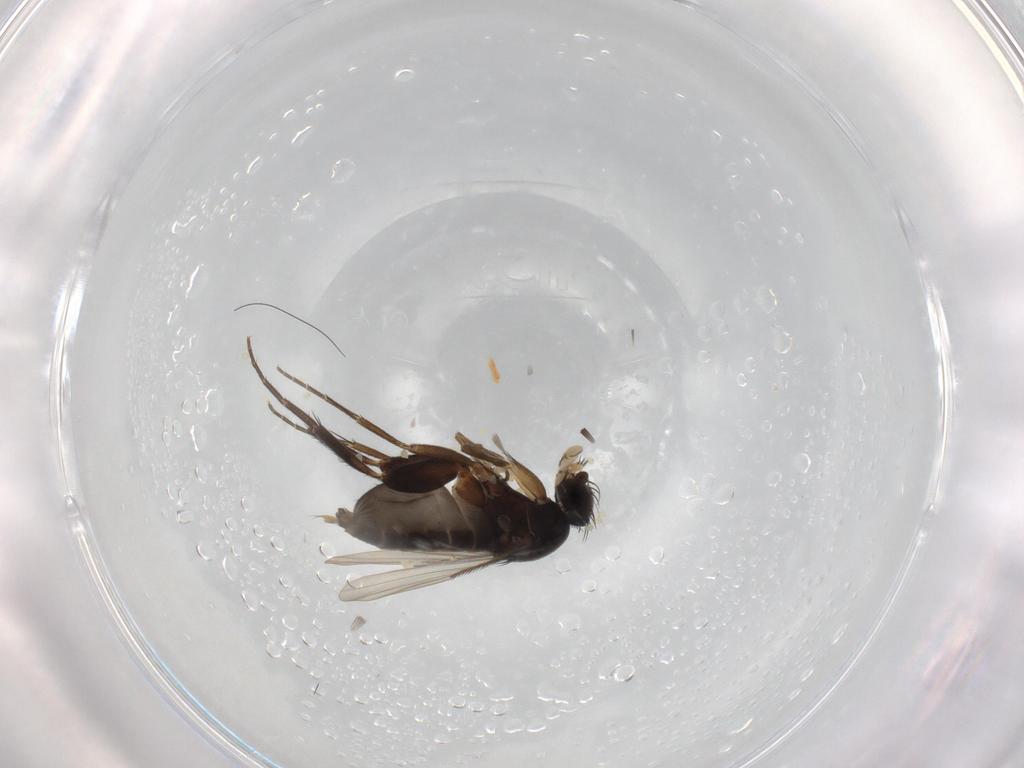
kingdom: Animalia
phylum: Arthropoda
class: Insecta
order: Diptera
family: Phoridae
